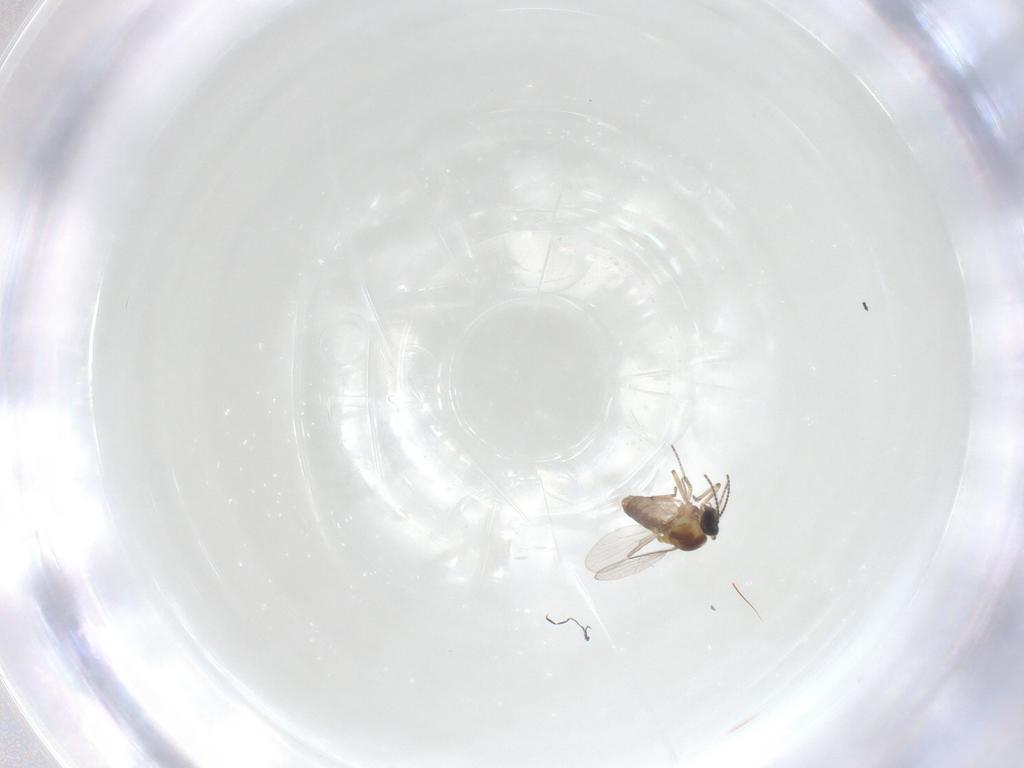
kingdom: Animalia
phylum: Arthropoda
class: Insecta
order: Diptera
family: Ceratopogonidae
